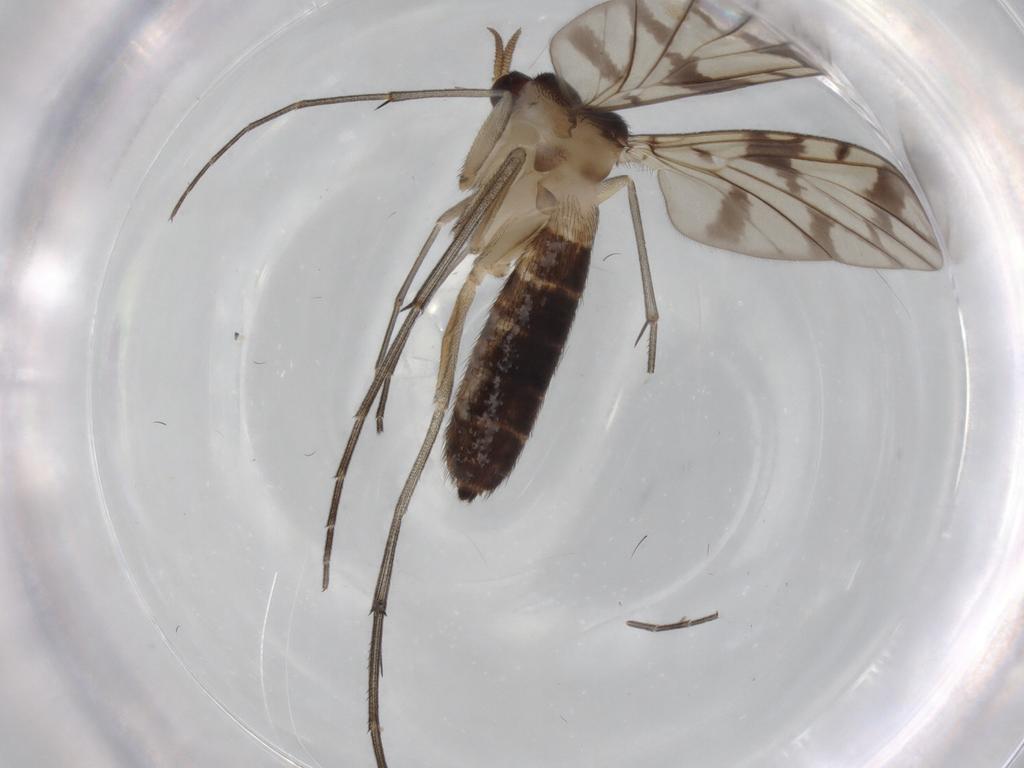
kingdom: Animalia
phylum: Arthropoda
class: Insecta
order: Diptera
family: Keroplatidae
